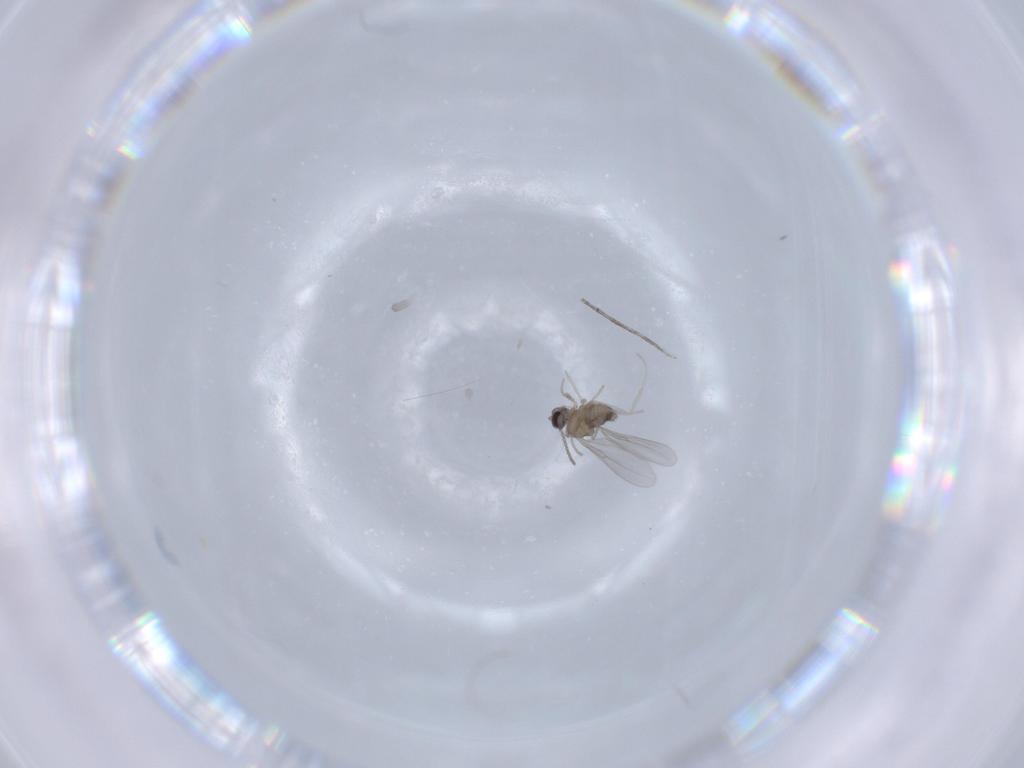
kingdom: Animalia
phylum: Arthropoda
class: Insecta
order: Diptera
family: Cecidomyiidae
